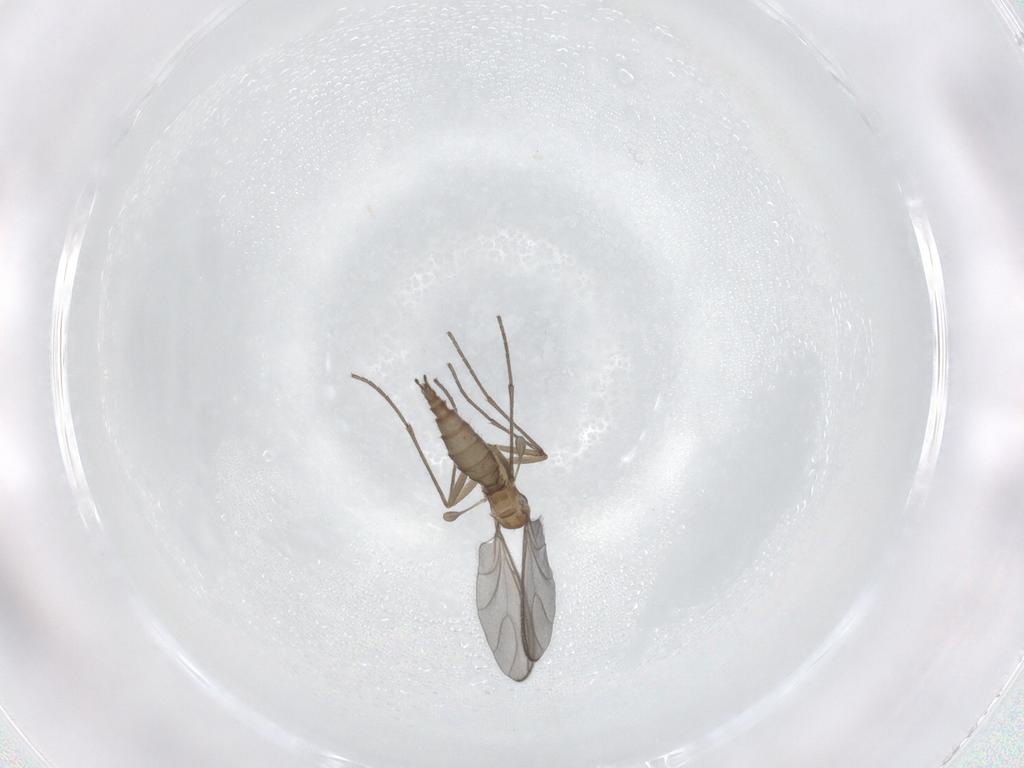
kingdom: Animalia
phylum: Arthropoda
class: Insecta
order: Diptera
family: Sciaridae
